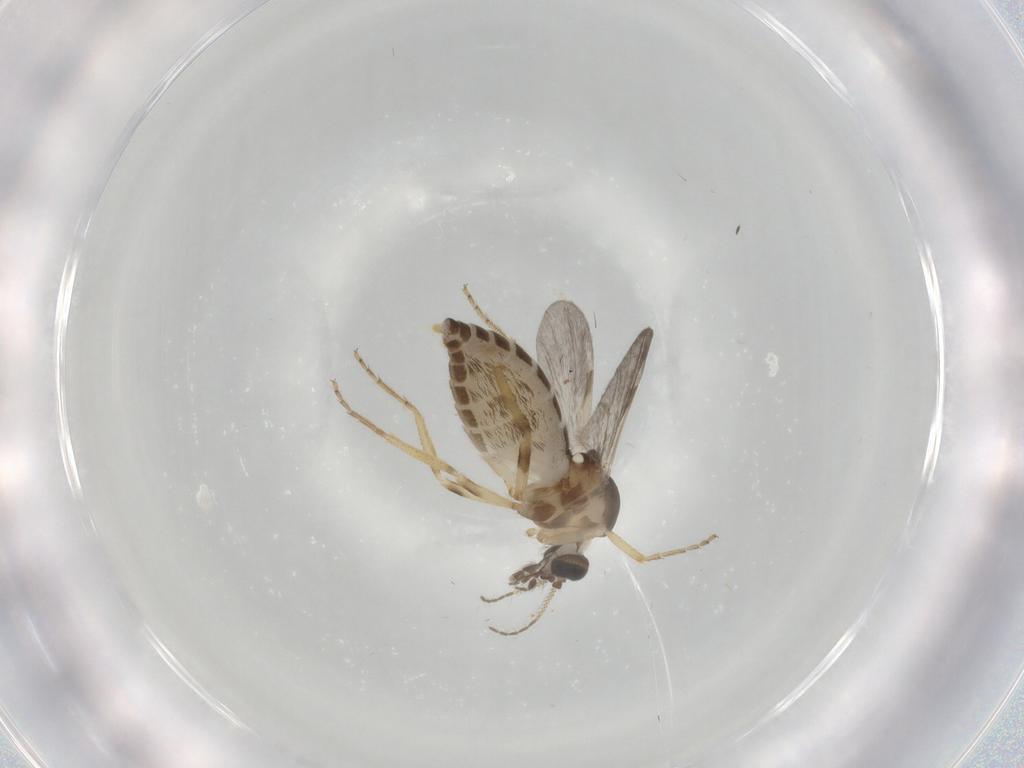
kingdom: Animalia
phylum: Arthropoda
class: Insecta
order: Diptera
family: Ceratopogonidae
